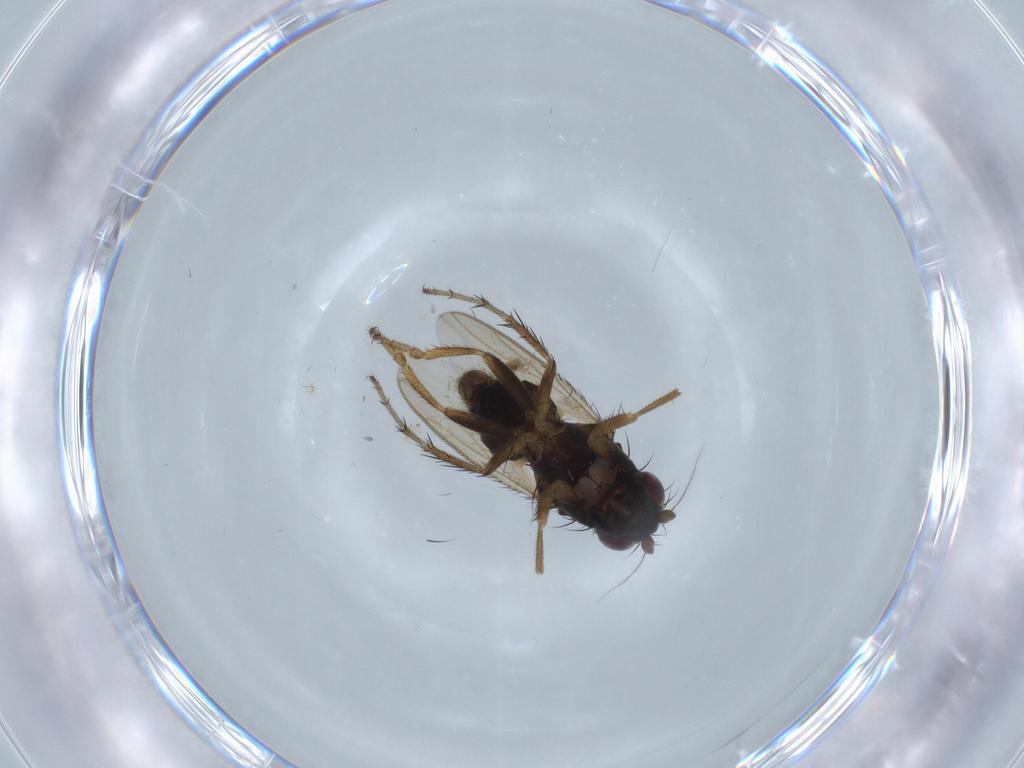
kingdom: Animalia
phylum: Arthropoda
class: Insecta
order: Diptera
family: Sphaeroceridae
